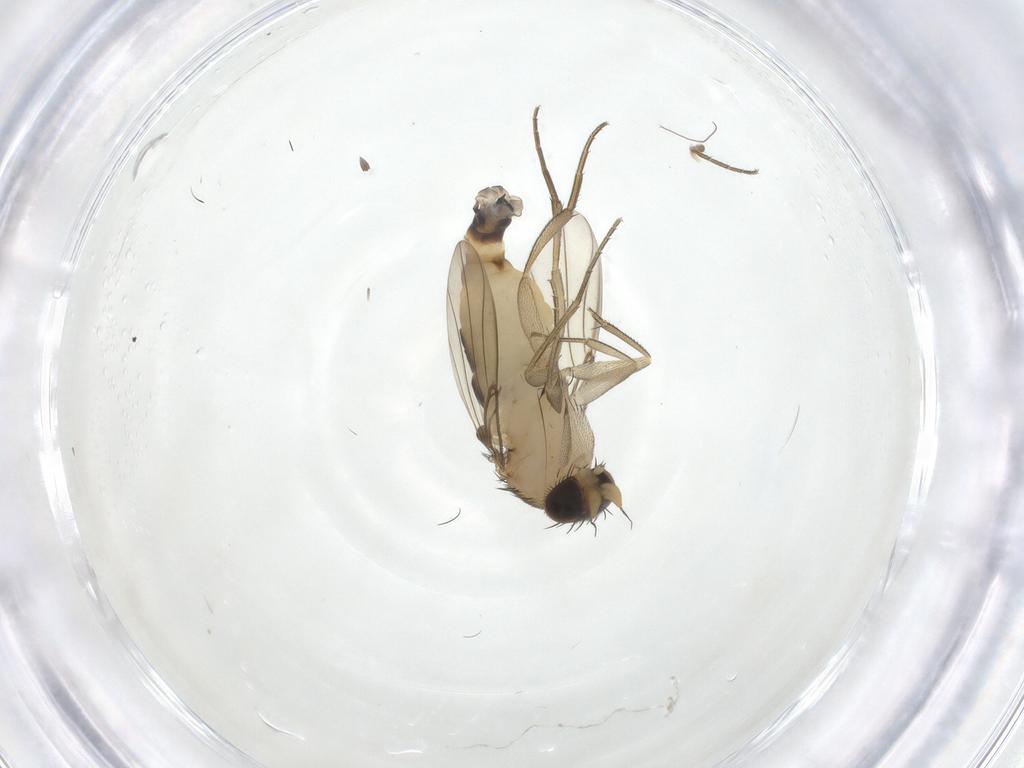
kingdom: Animalia
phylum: Arthropoda
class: Insecta
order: Diptera
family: Phoridae
